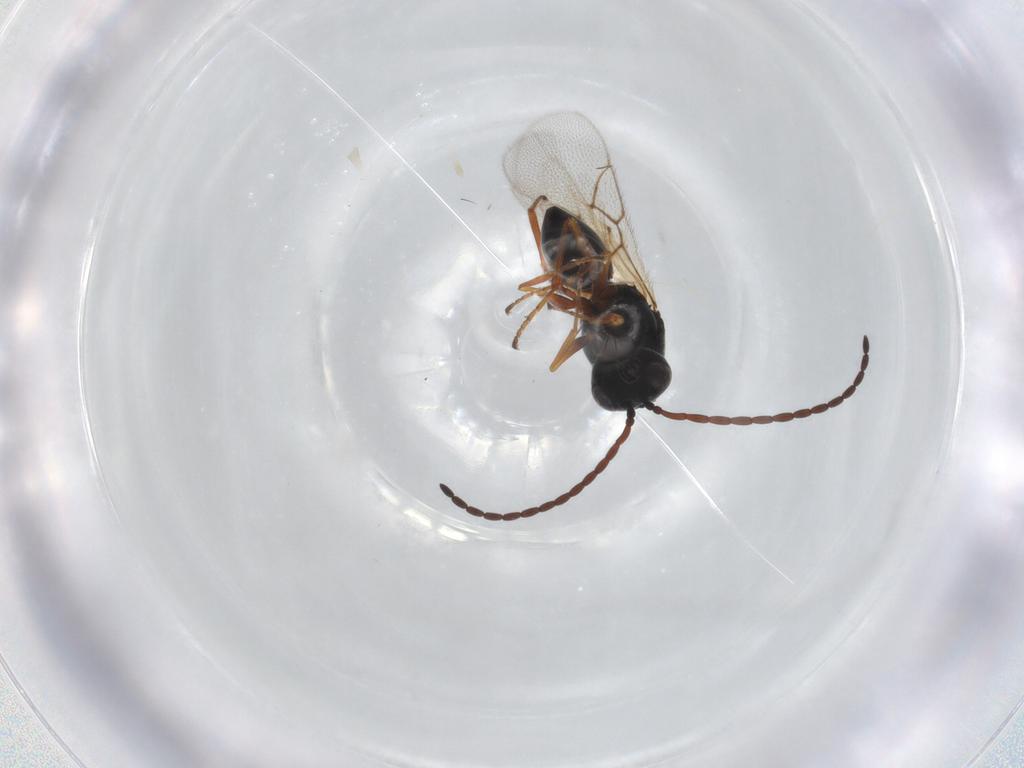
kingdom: Animalia
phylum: Arthropoda
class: Insecta
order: Hymenoptera
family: Figitidae
